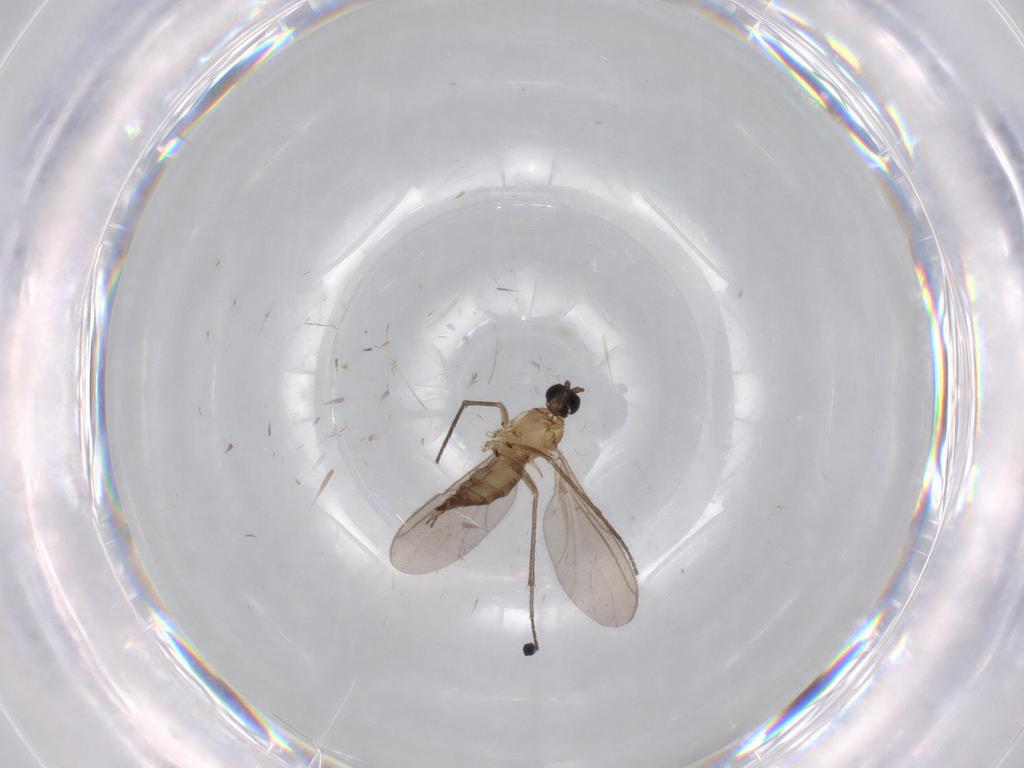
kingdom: Animalia
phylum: Arthropoda
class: Insecta
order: Diptera
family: Sciaridae
